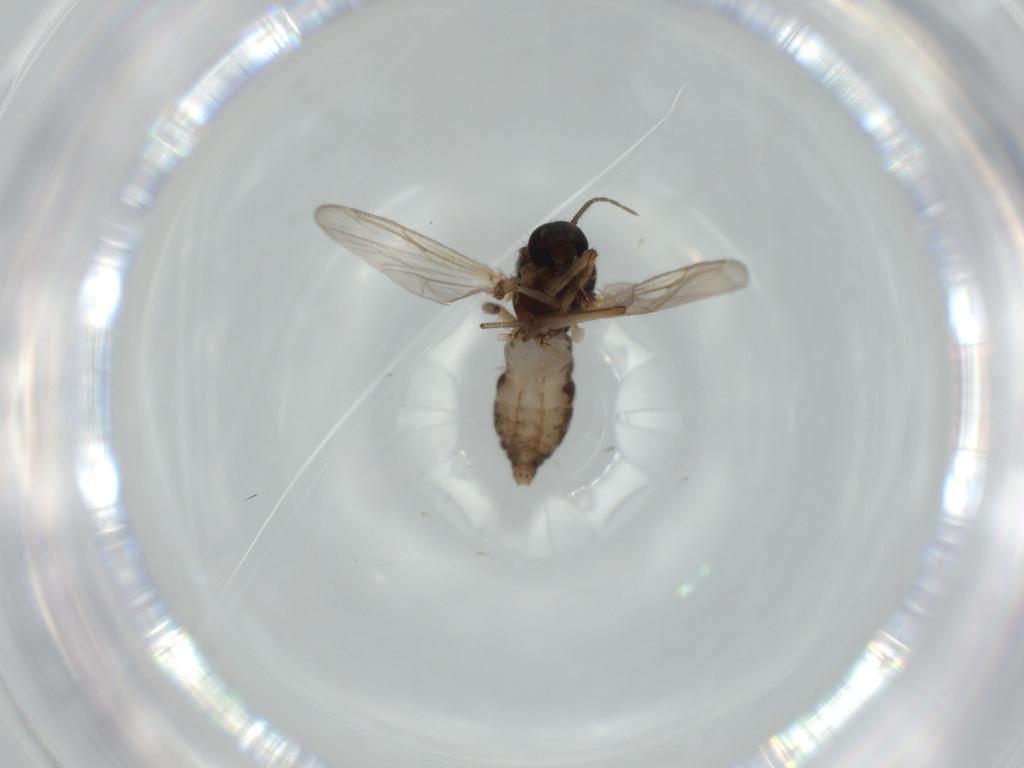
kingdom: Animalia
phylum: Arthropoda
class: Insecta
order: Diptera
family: Ceratopogonidae
